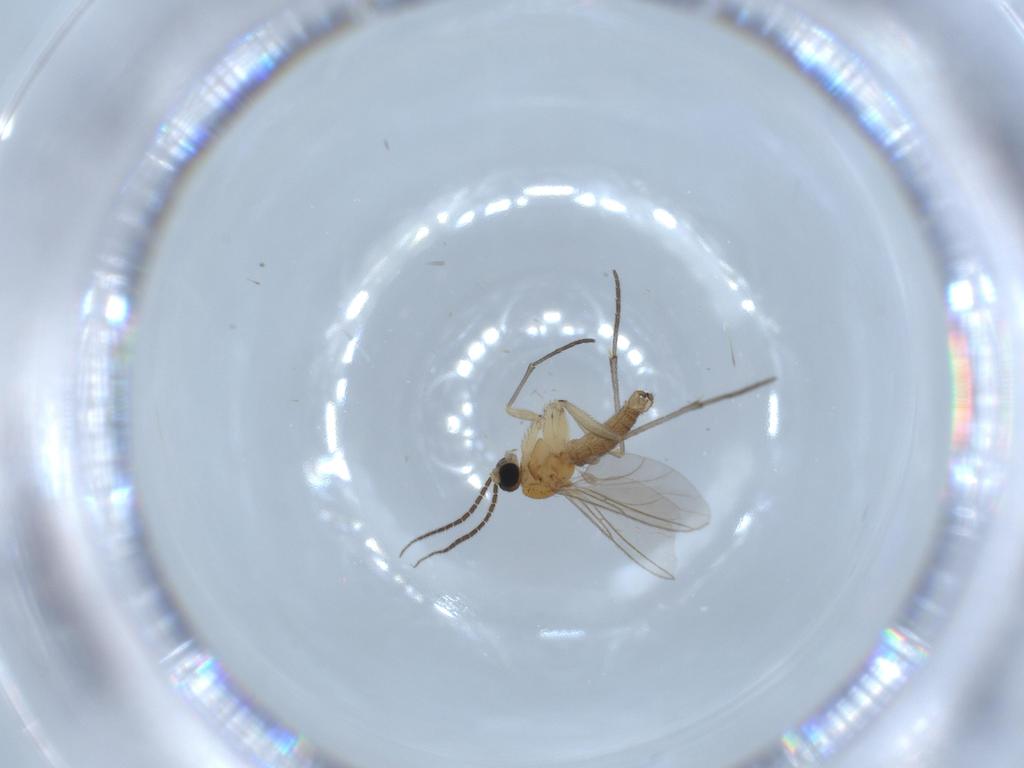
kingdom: Animalia
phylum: Arthropoda
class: Insecta
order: Diptera
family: Sciaridae
